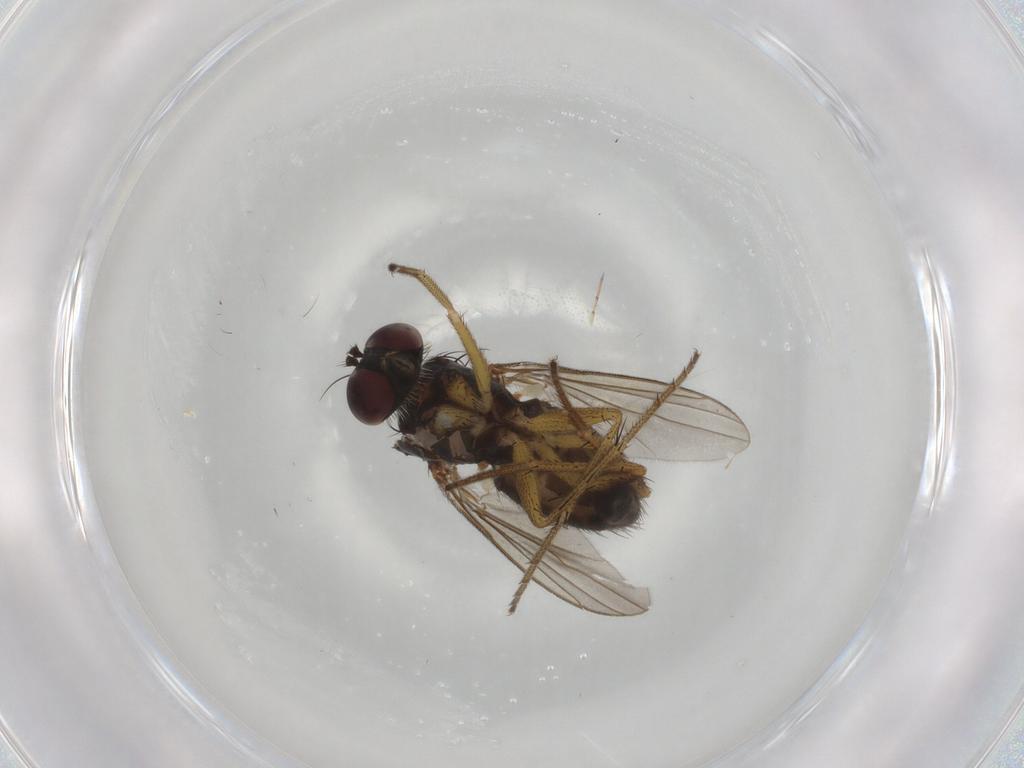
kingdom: Animalia
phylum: Arthropoda
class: Insecta
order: Diptera
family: Dolichopodidae
